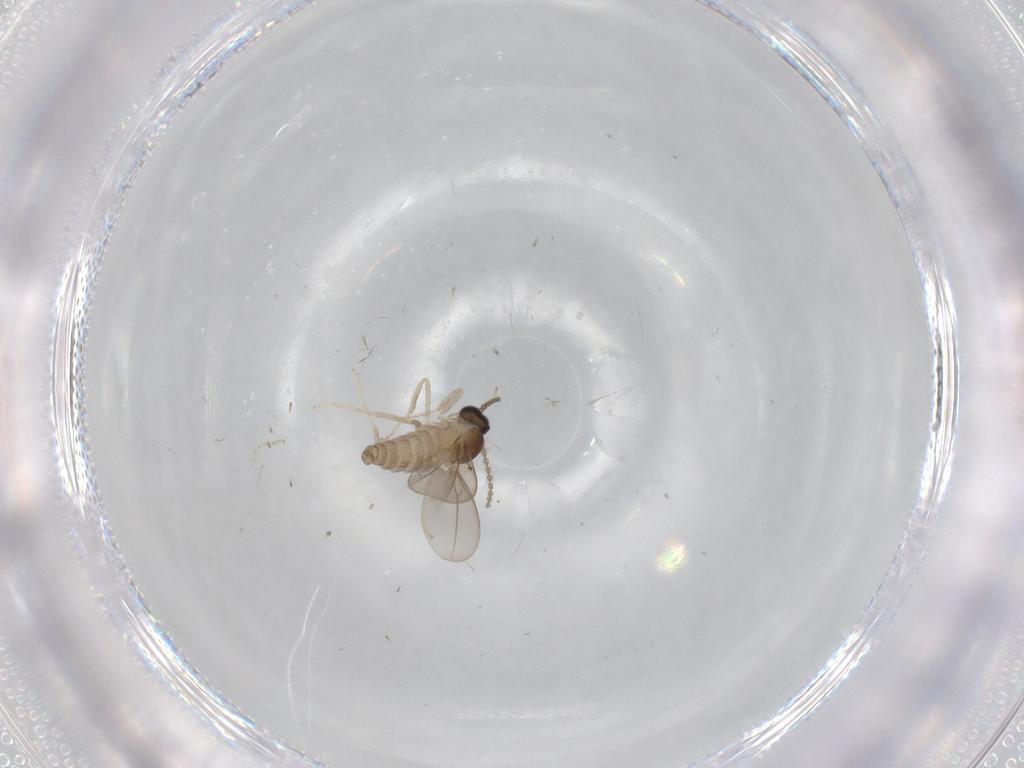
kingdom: Animalia
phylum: Arthropoda
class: Insecta
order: Diptera
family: Cecidomyiidae
